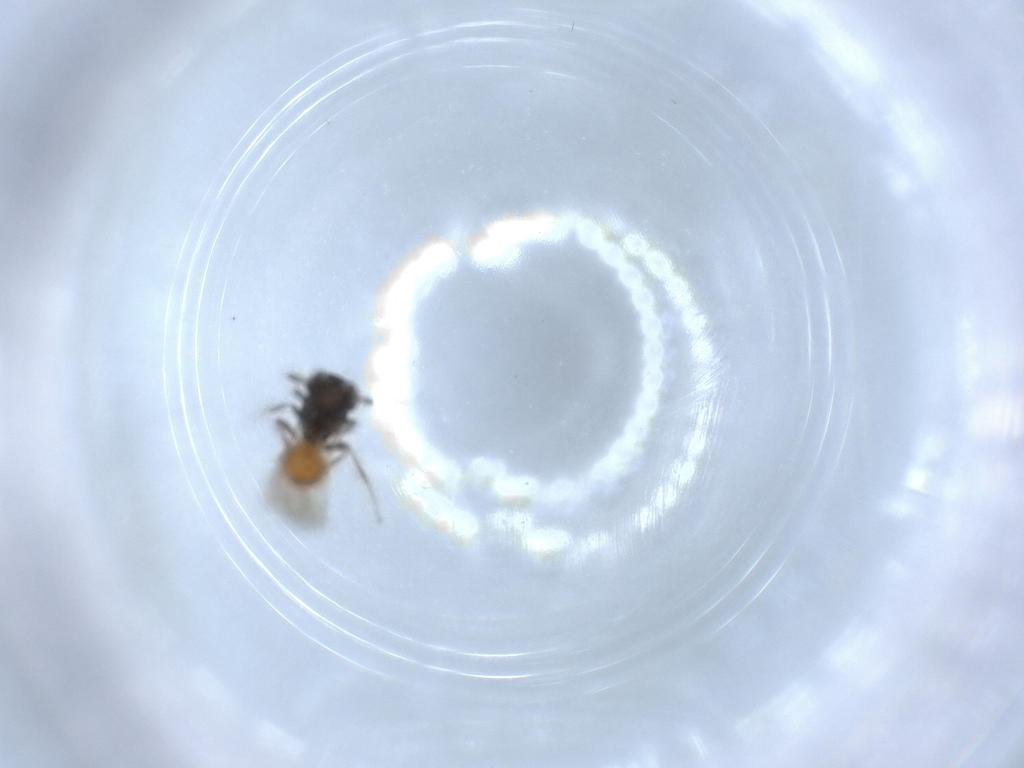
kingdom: Animalia
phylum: Arthropoda
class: Insecta
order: Hymenoptera
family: Scelionidae
